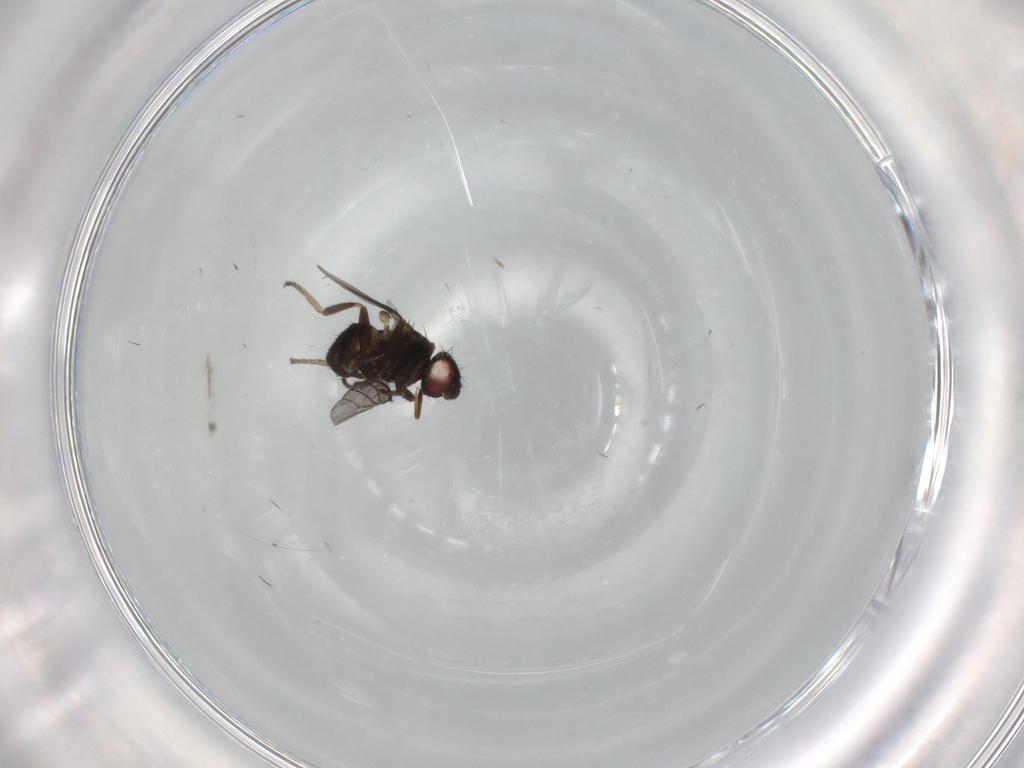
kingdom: Animalia
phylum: Arthropoda
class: Insecta
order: Diptera
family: Milichiidae
